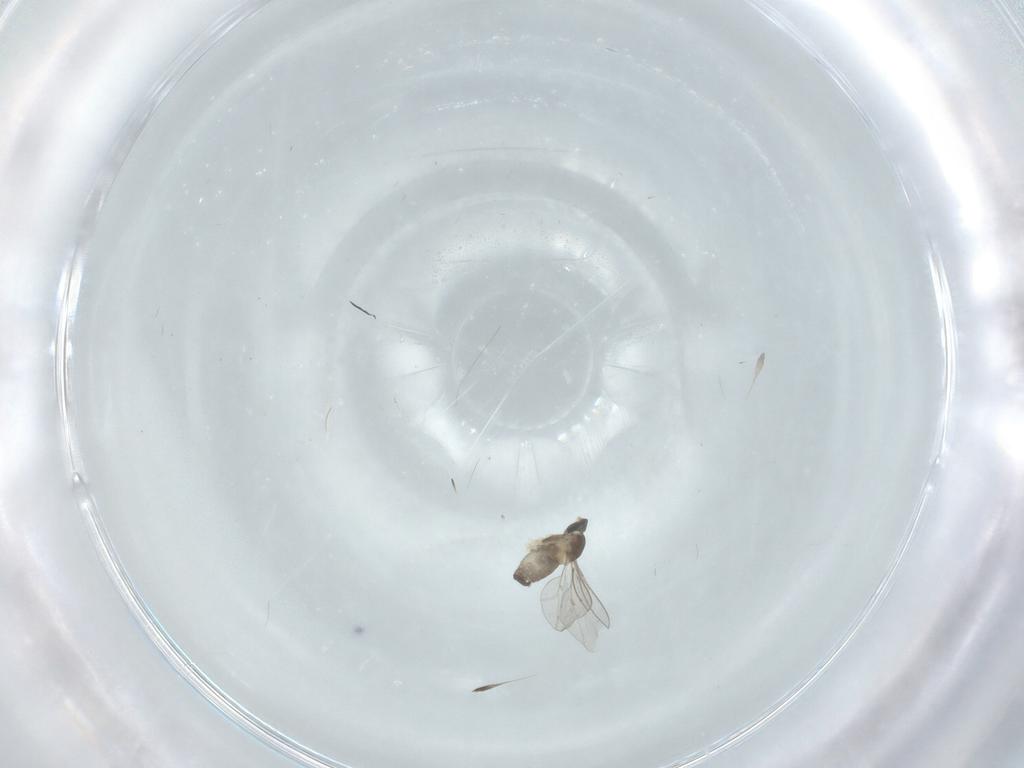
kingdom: Animalia
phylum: Arthropoda
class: Insecta
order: Diptera
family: Cecidomyiidae
